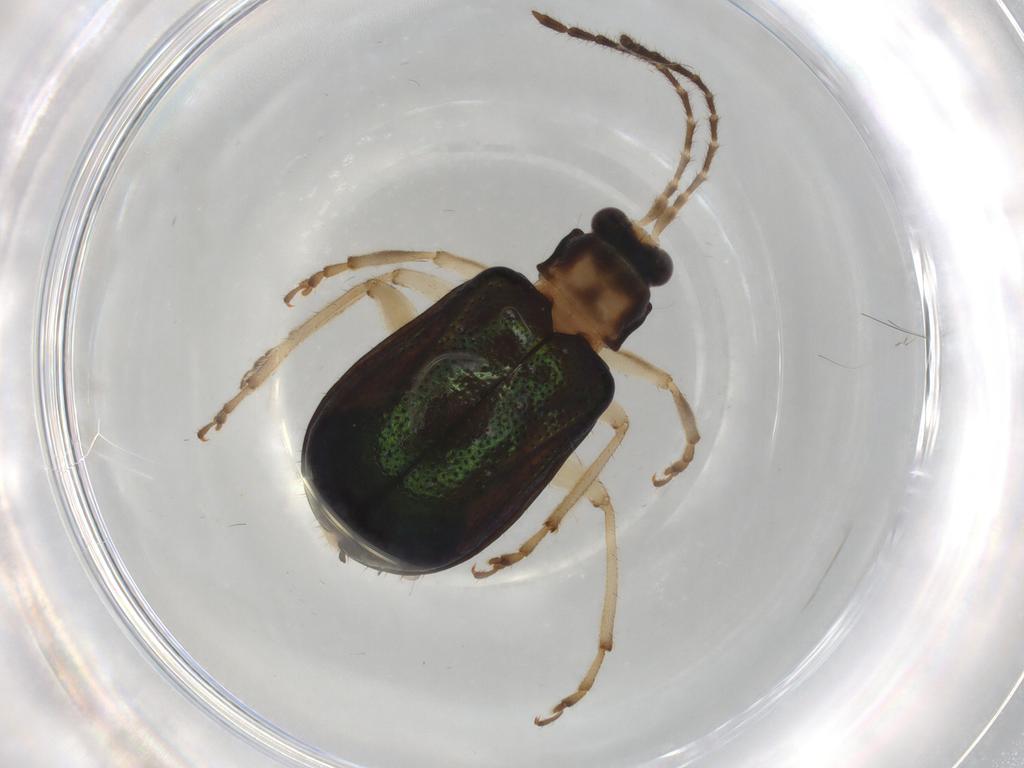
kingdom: Animalia
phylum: Arthropoda
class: Insecta
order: Coleoptera
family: Chrysomelidae
